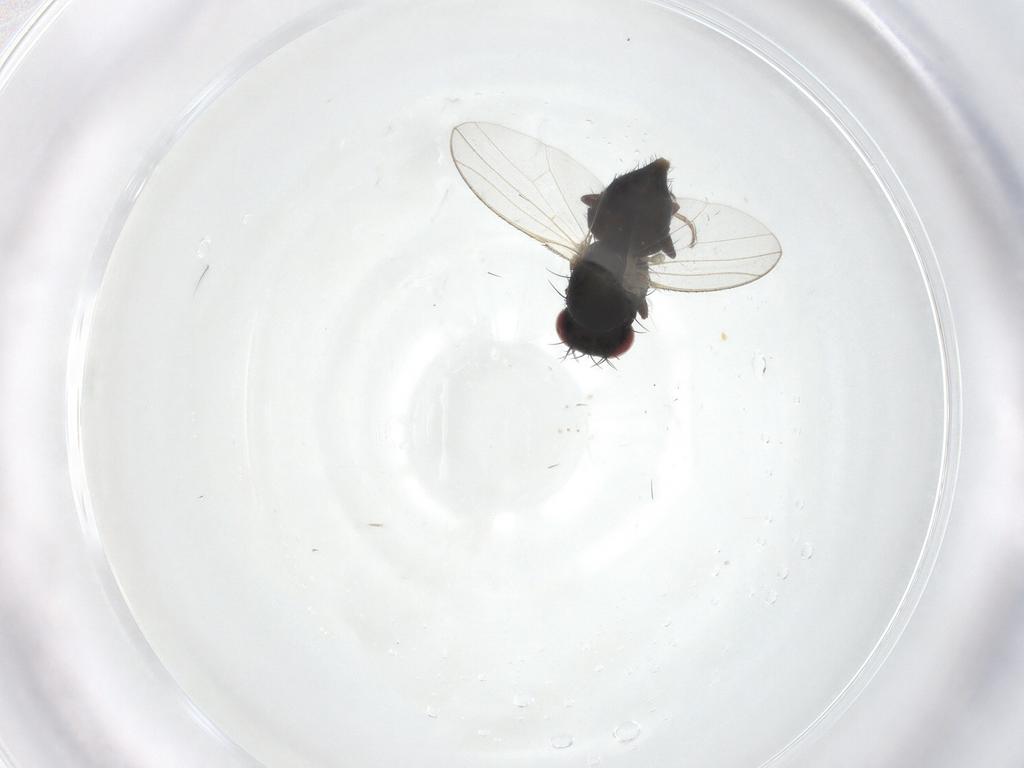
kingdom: Animalia
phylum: Arthropoda
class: Insecta
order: Diptera
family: Carnidae
